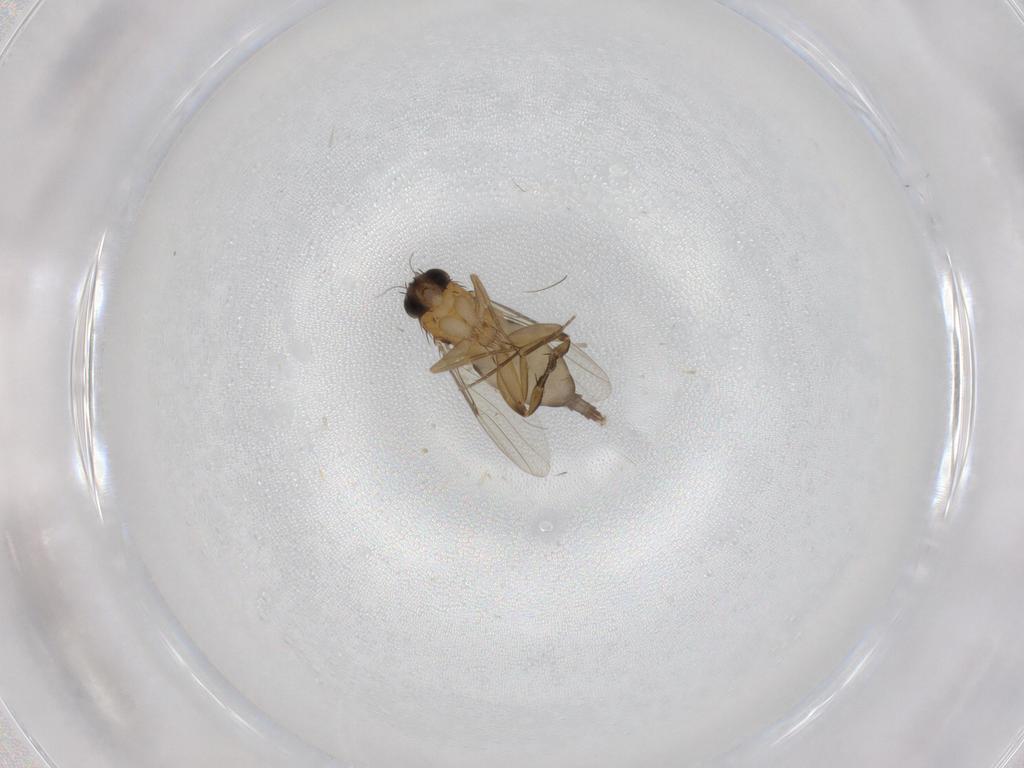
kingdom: Animalia
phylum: Arthropoda
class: Insecta
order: Diptera
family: Phoridae
